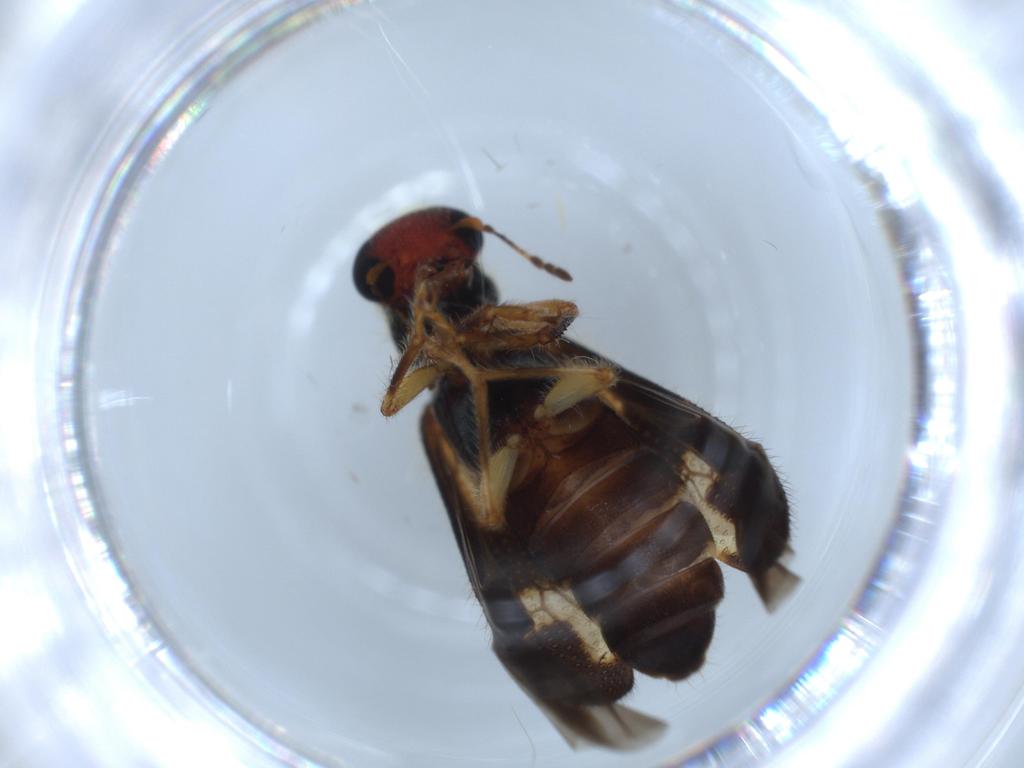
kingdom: Animalia
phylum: Arthropoda
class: Insecta
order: Coleoptera
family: Cleridae
